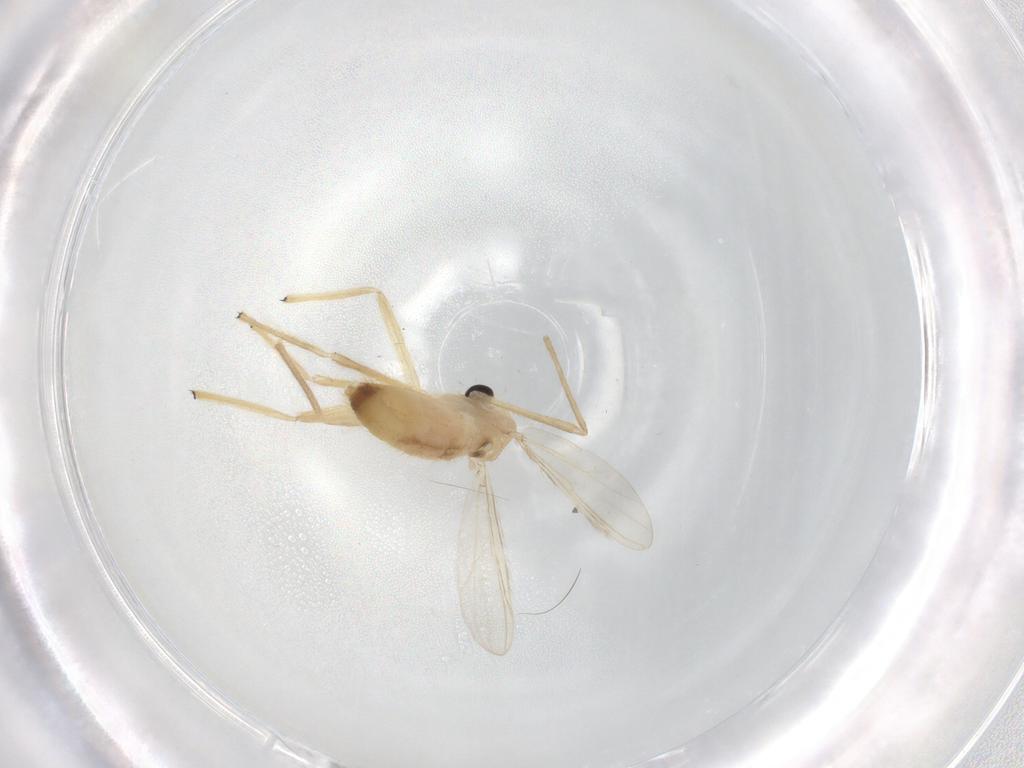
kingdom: Animalia
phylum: Arthropoda
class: Insecta
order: Diptera
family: Chironomidae
